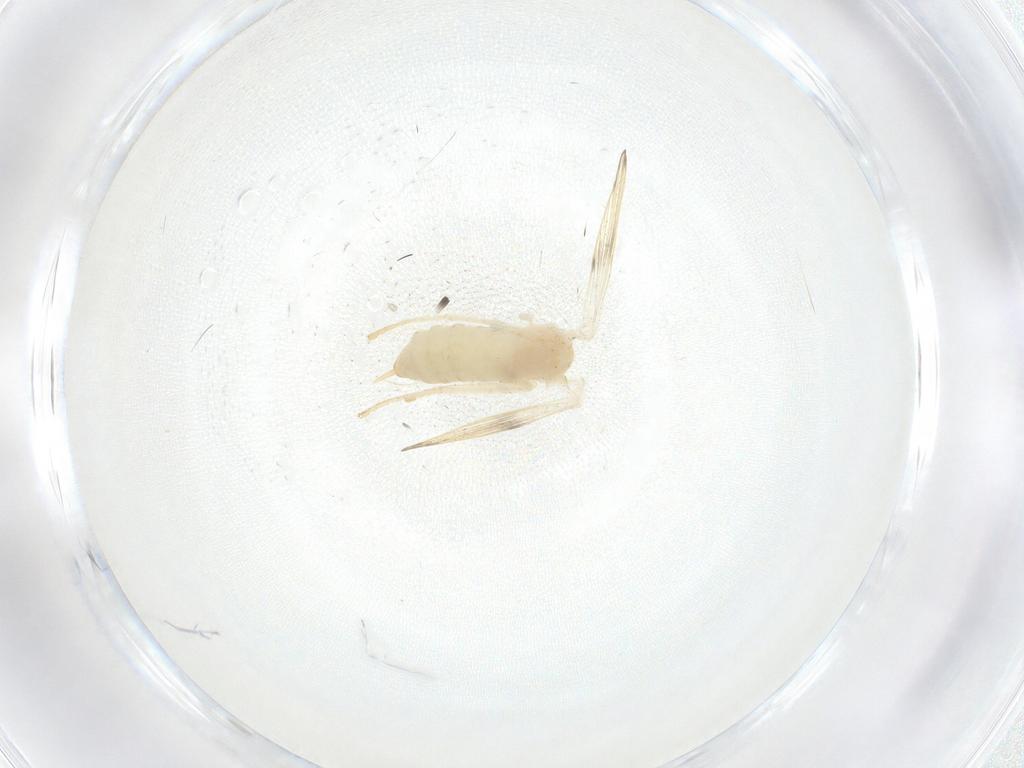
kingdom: Animalia
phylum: Arthropoda
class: Insecta
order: Diptera
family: Psychodidae
